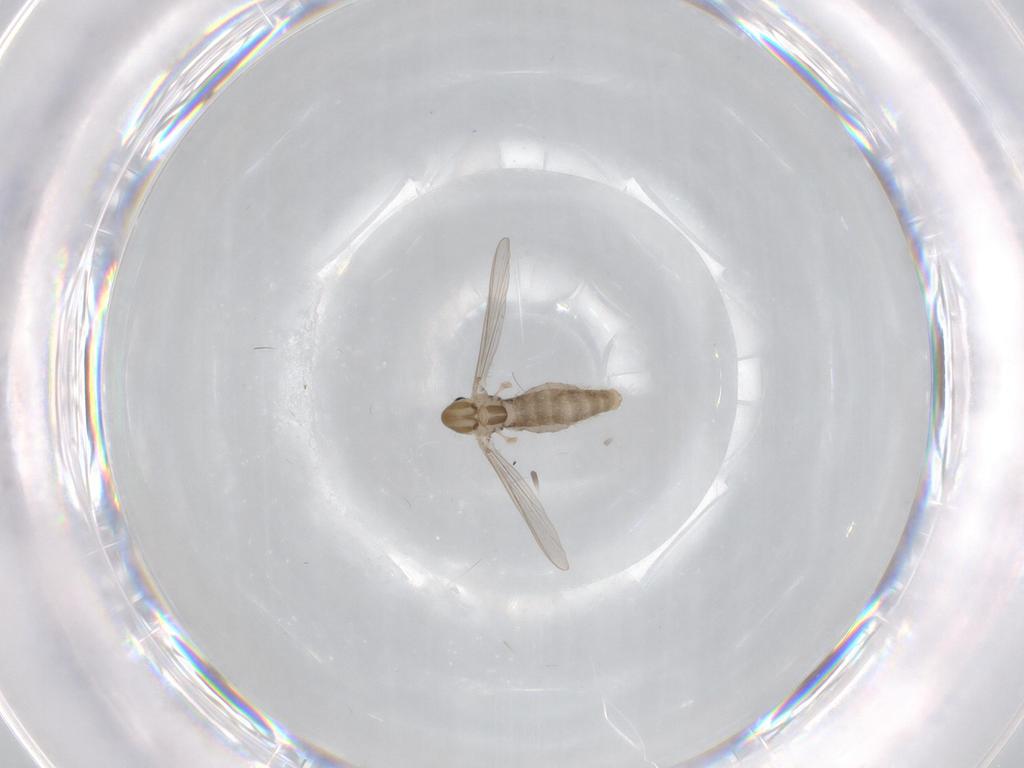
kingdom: Animalia
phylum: Arthropoda
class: Insecta
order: Diptera
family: Chironomidae
